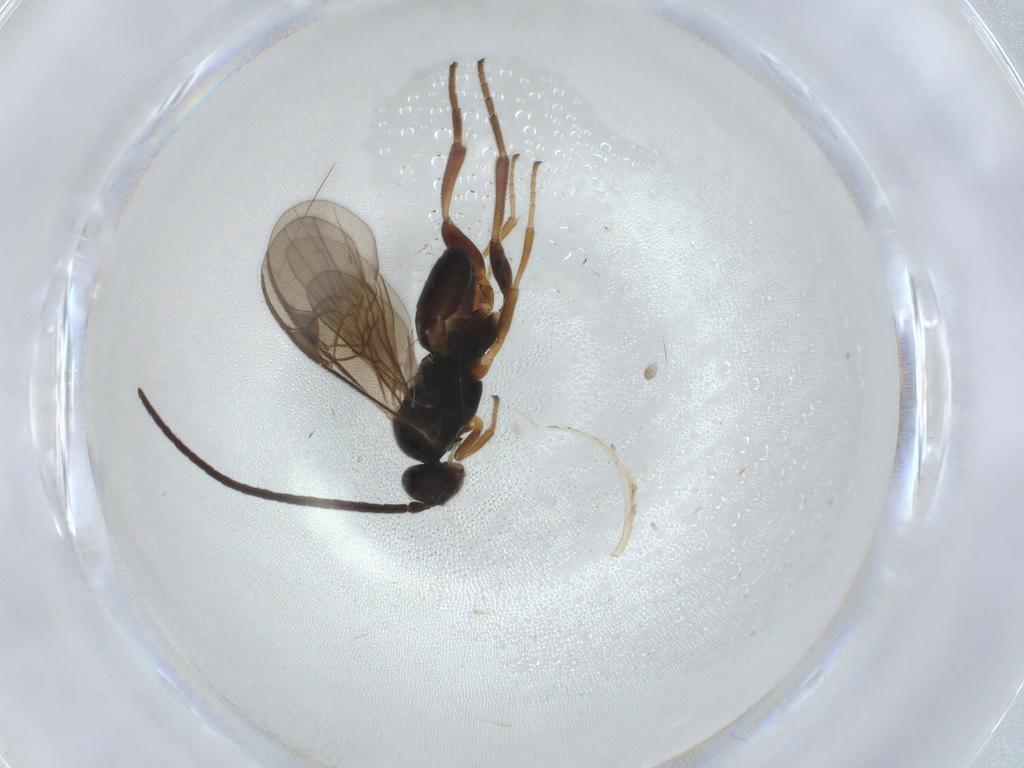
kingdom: Animalia
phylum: Arthropoda
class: Insecta
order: Hymenoptera
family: Braconidae
